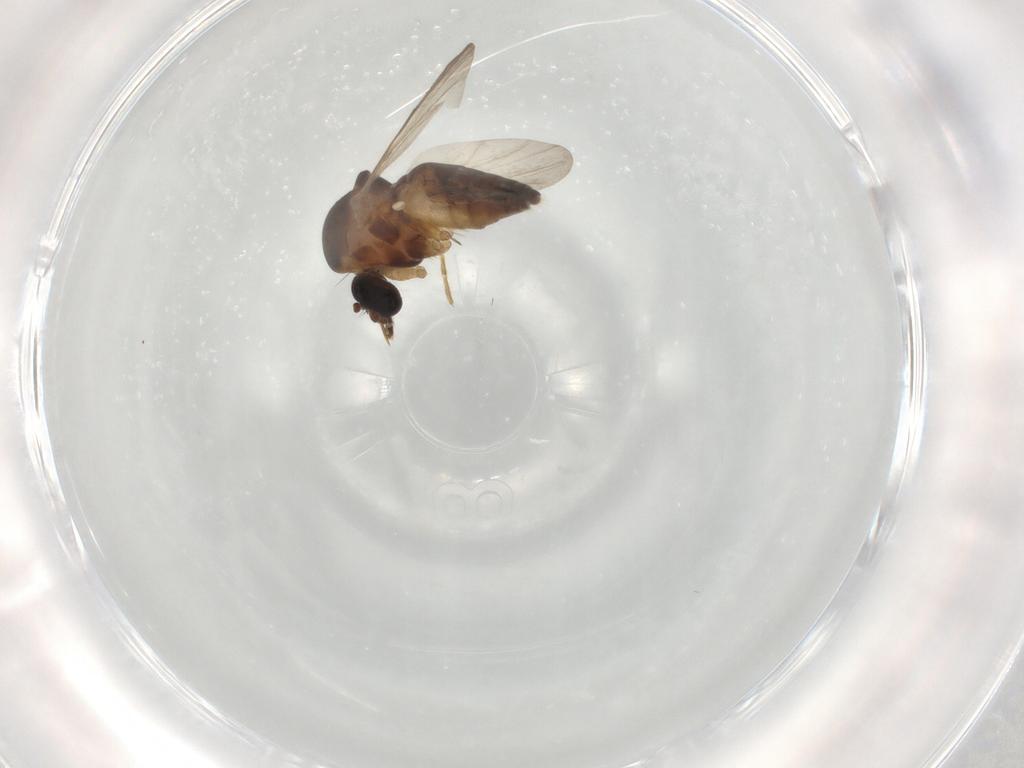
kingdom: Animalia
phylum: Arthropoda
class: Insecta
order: Diptera
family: Ceratopogonidae
